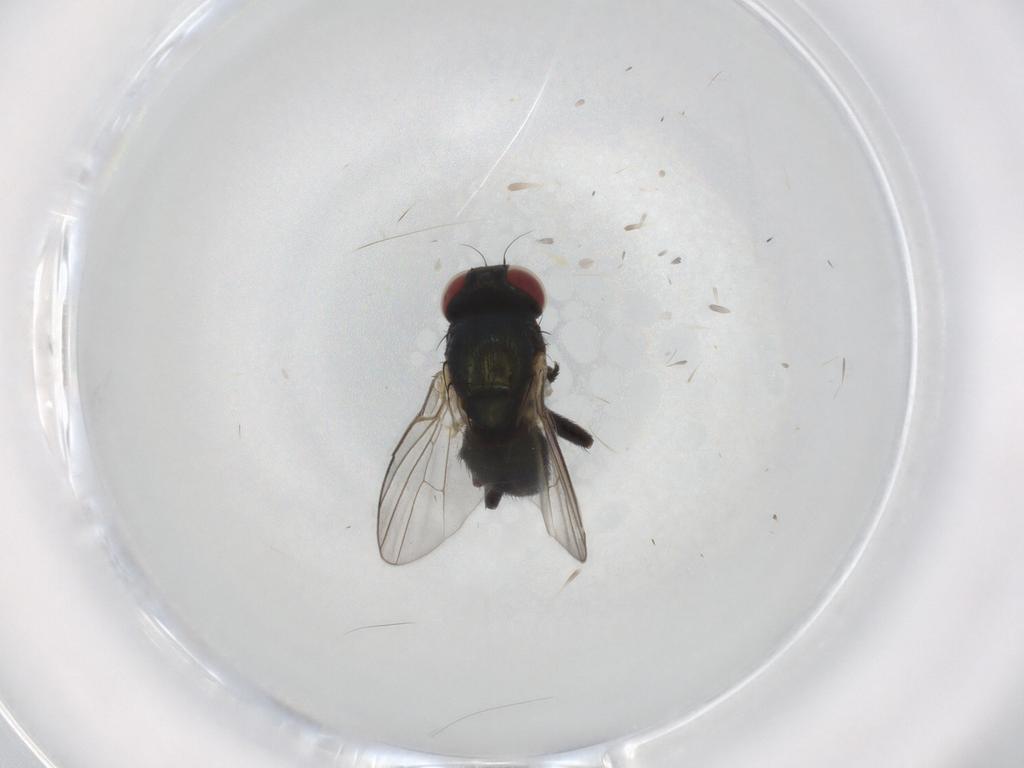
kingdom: Animalia
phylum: Arthropoda
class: Insecta
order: Diptera
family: Agromyzidae
